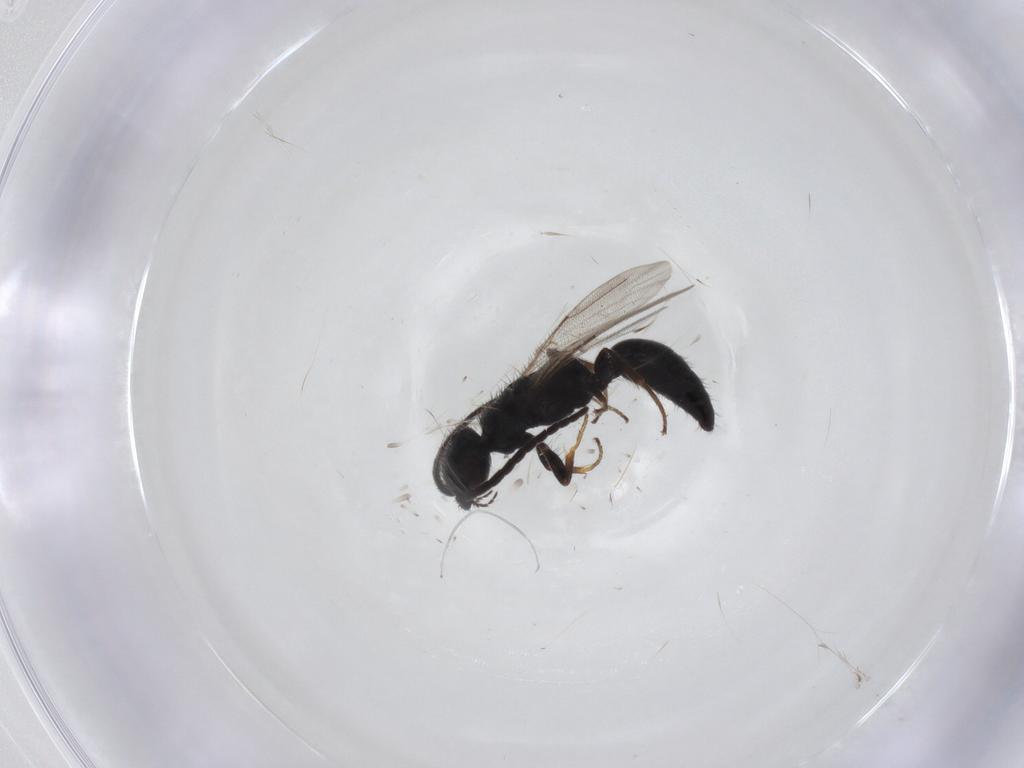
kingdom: Animalia
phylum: Arthropoda
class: Insecta
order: Hymenoptera
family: Bethylidae
